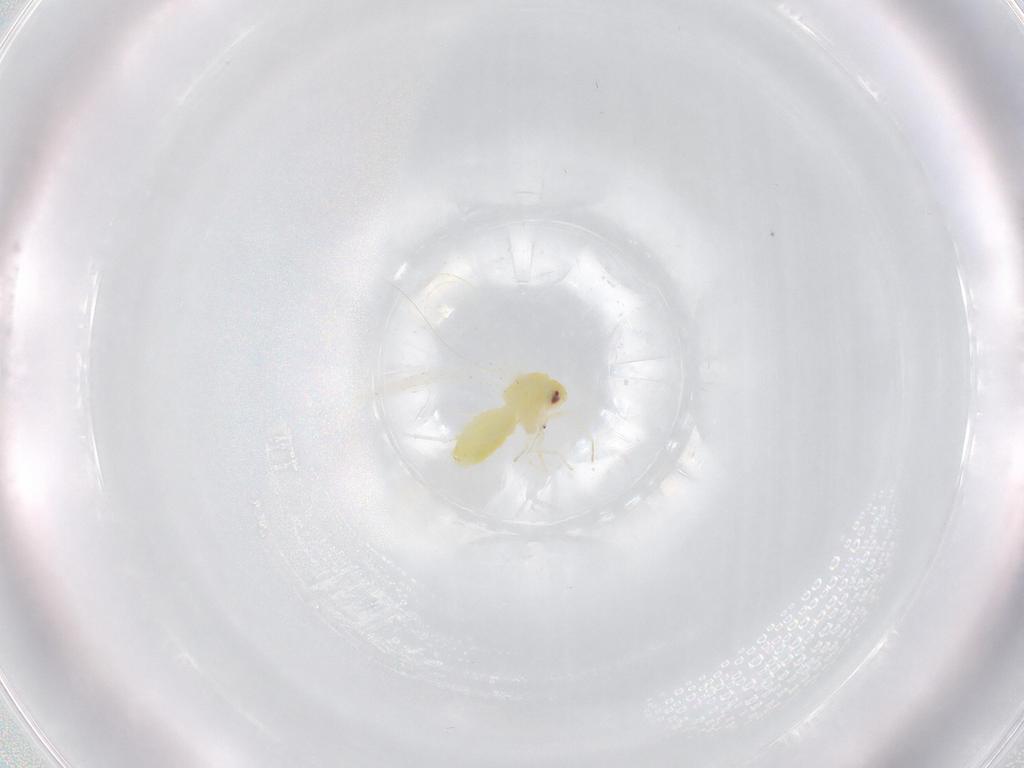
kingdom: Animalia
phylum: Arthropoda
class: Insecta
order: Hemiptera
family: Aleyrodidae
